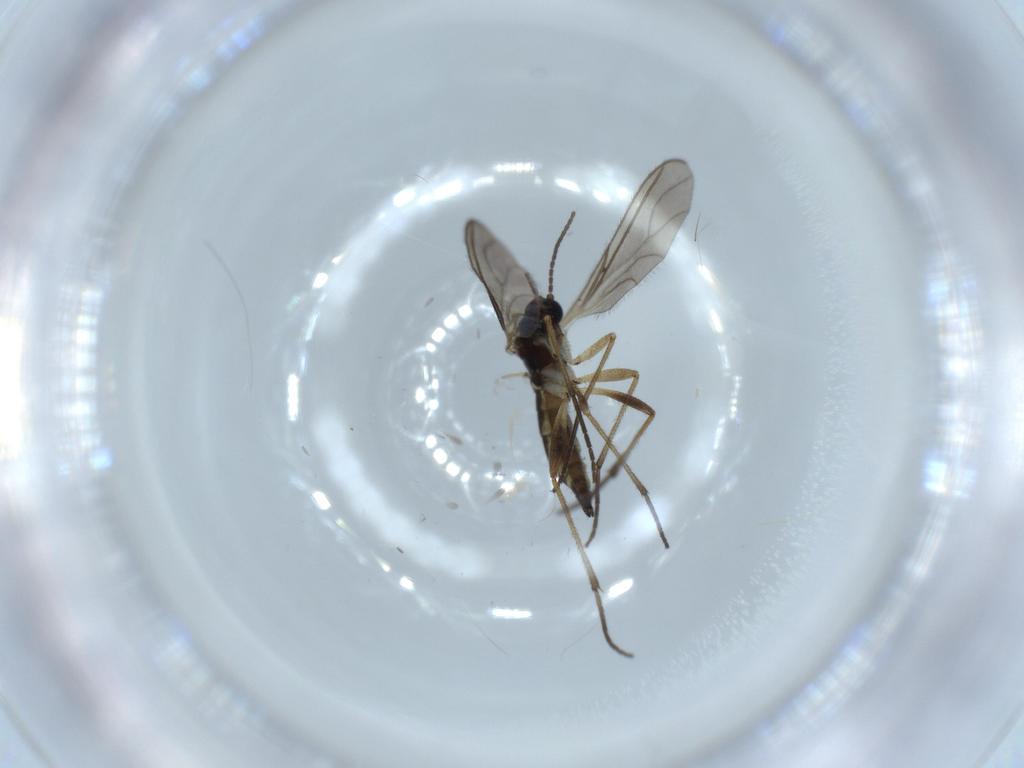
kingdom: Animalia
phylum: Arthropoda
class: Insecta
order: Diptera
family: Sciaridae
